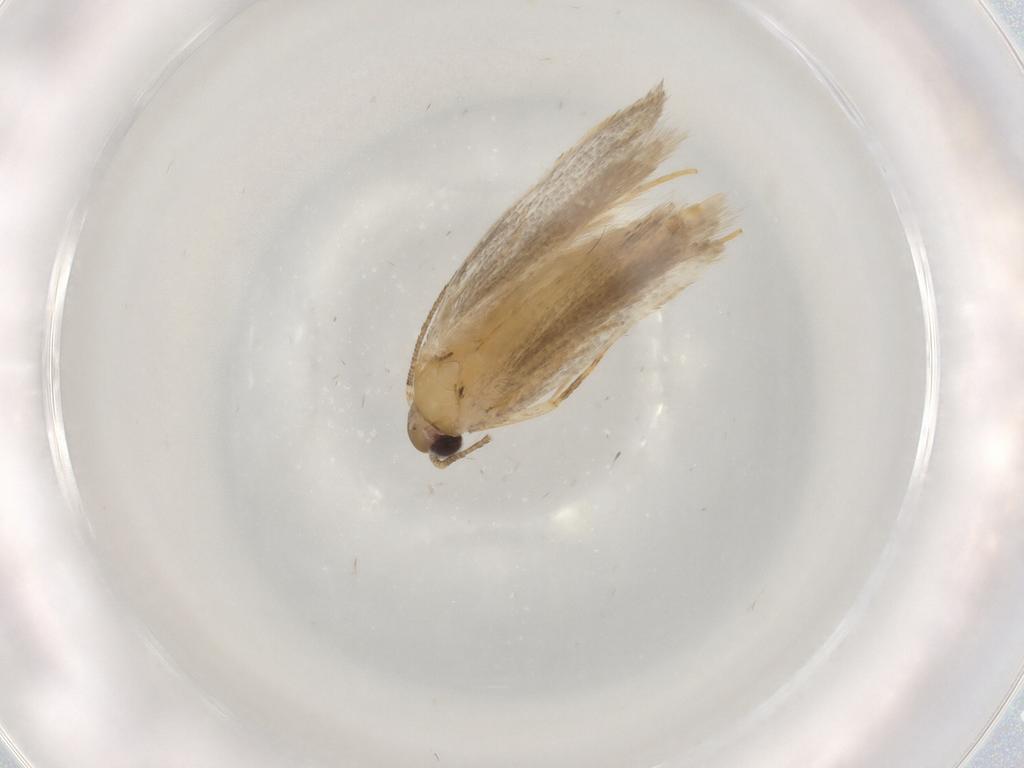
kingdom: Animalia
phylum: Arthropoda
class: Insecta
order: Lepidoptera
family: Autostichidae
